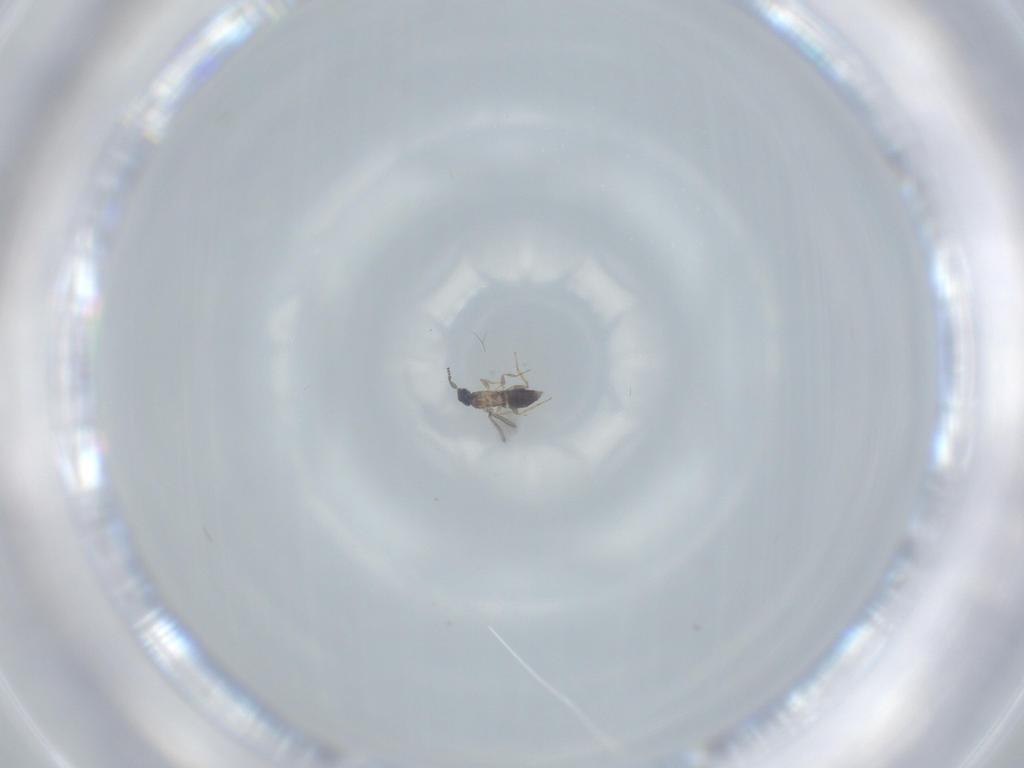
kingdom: Animalia
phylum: Arthropoda
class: Insecta
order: Hymenoptera
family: Mymaridae
